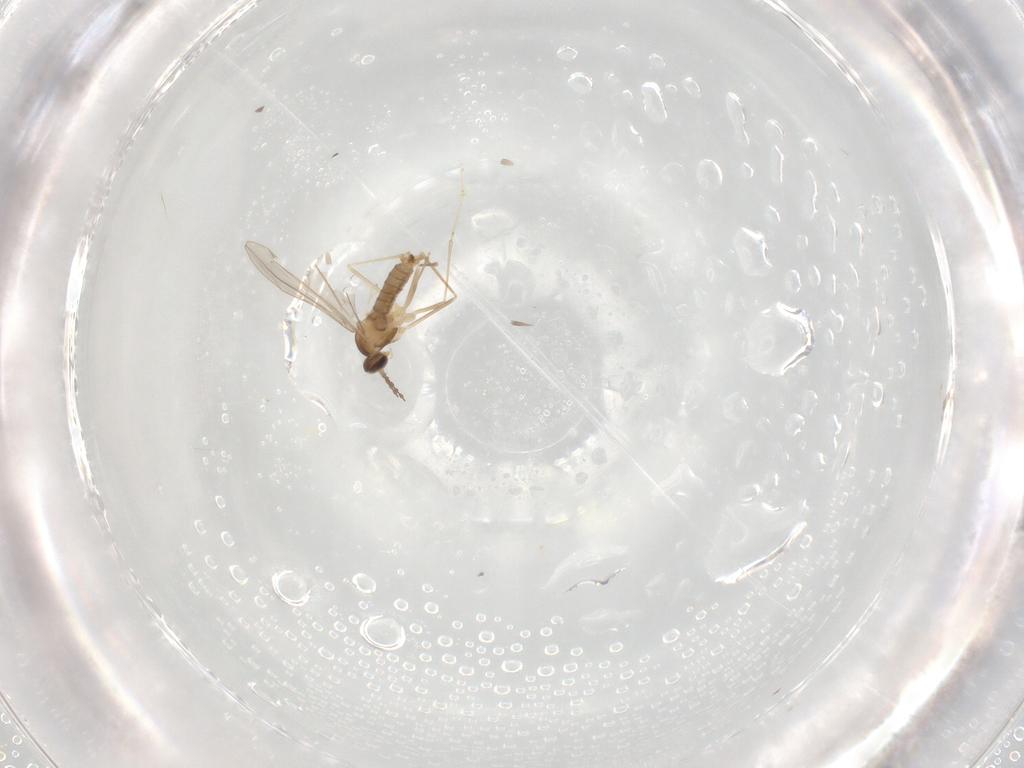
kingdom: Animalia
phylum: Arthropoda
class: Insecta
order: Diptera
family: Cecidomyiidae
